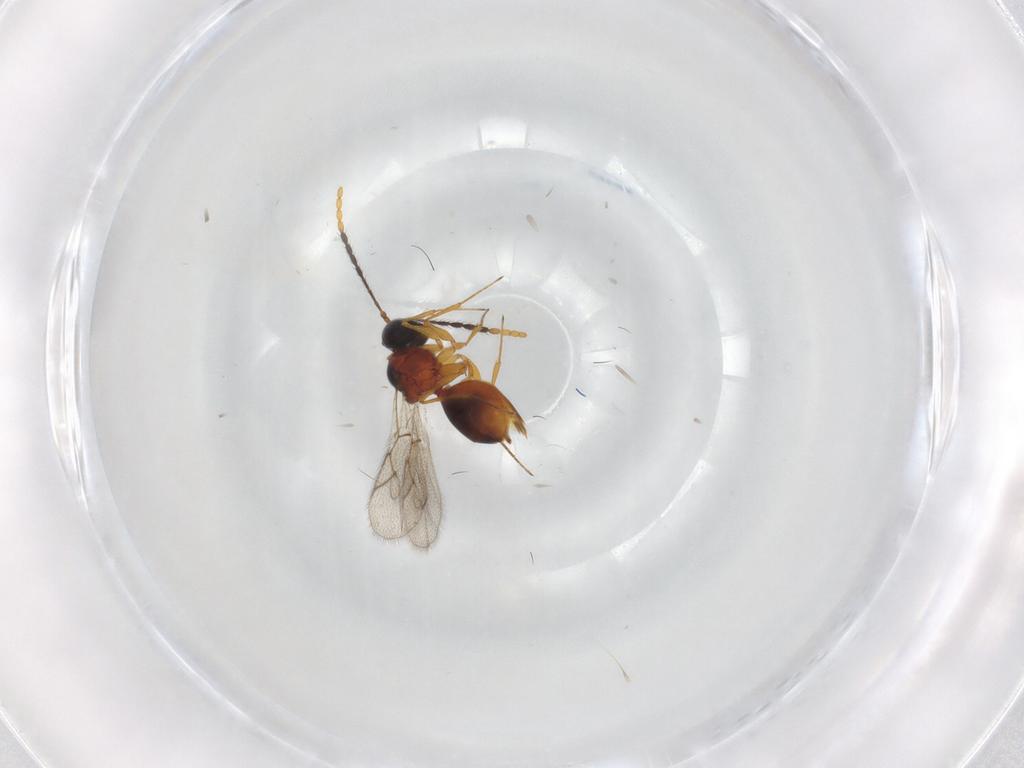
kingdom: Animalia
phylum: Arthropoda
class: Insecta
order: Hymenoptera
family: Figitidae
